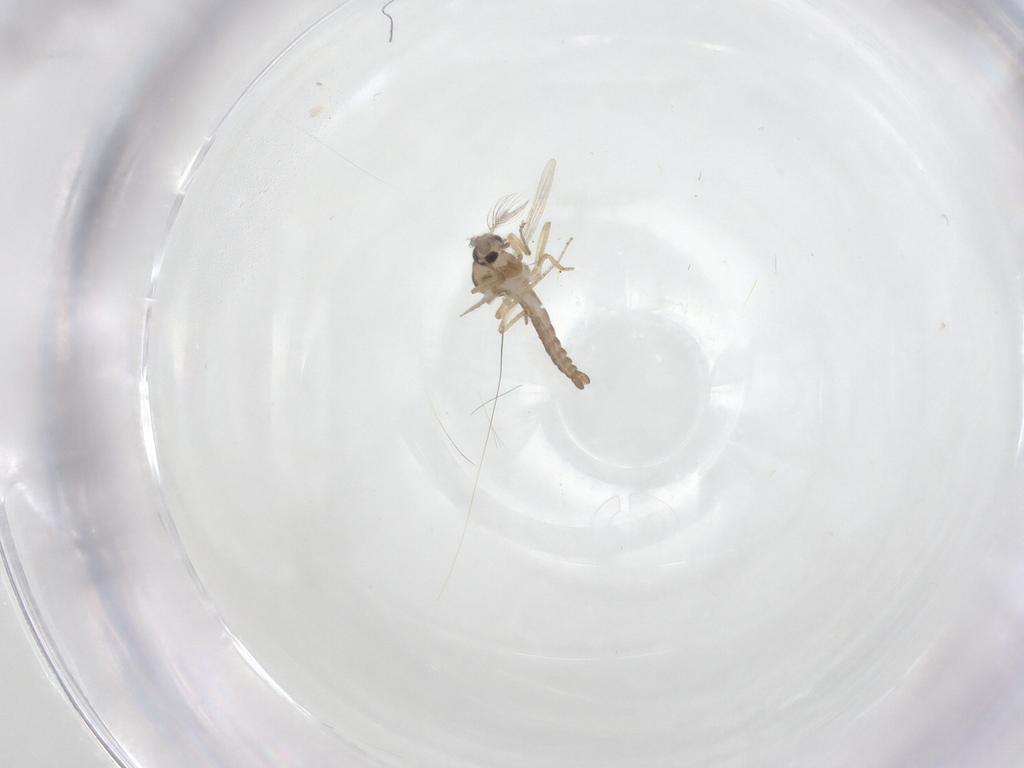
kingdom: Animalia
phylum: Arthropoda
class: Insecta
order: Diptera
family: Ceratopogonidae
